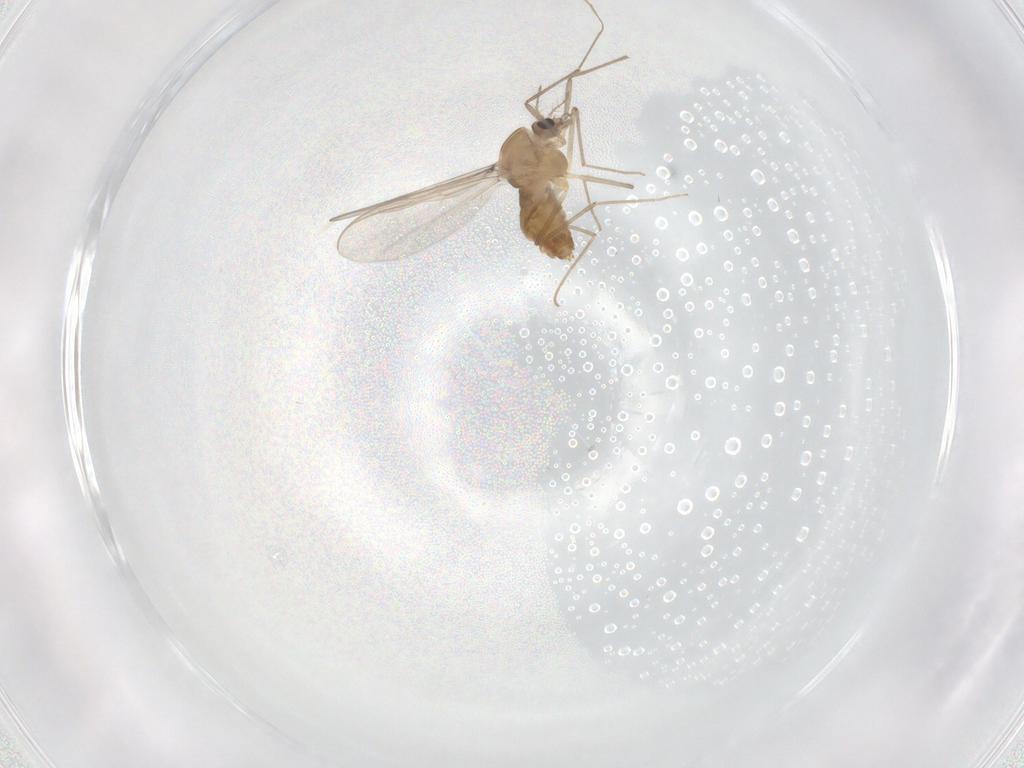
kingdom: Animalia
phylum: Arthropoda
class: Insecta
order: Diptera
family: Chironomidae
